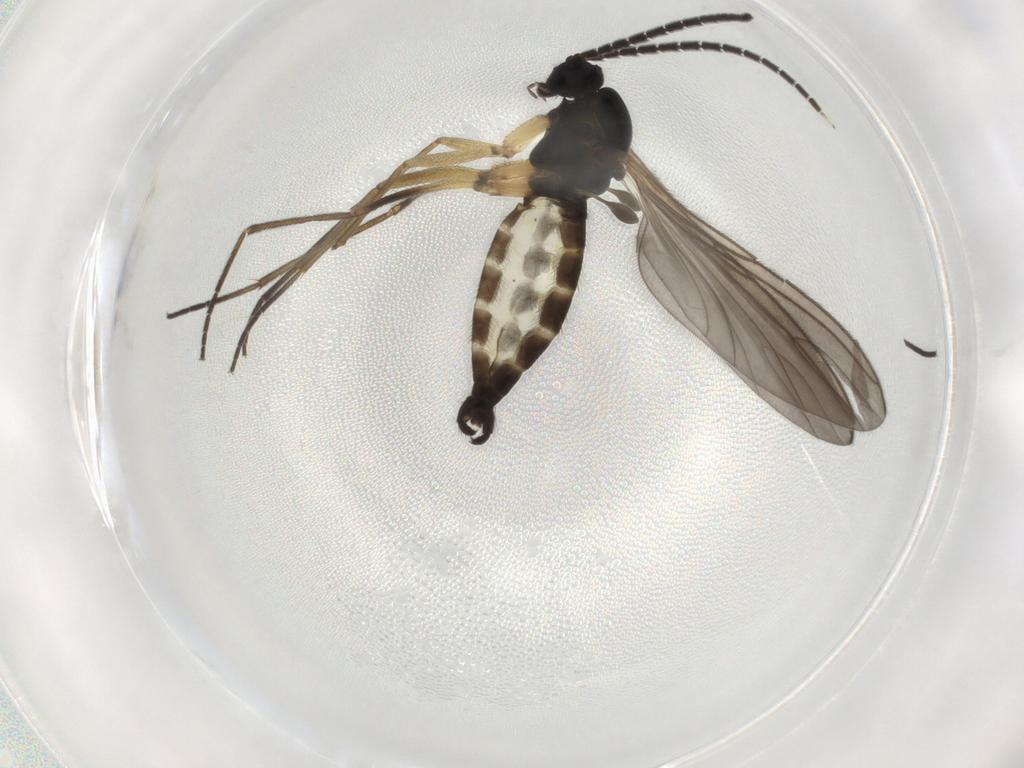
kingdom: Animalia
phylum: Arthropoda
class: Insecta
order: Diptera
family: Sciaridae
